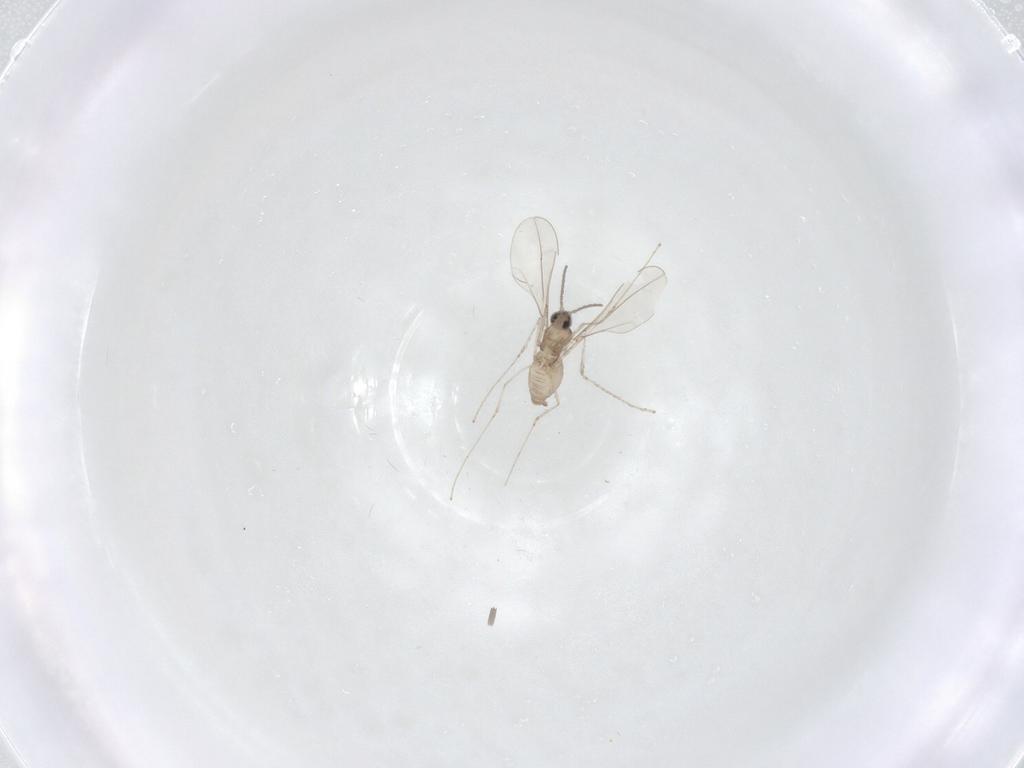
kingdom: Animalia
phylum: Arthropoda
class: Insecta
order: Diptera
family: Cecidomyiidae
